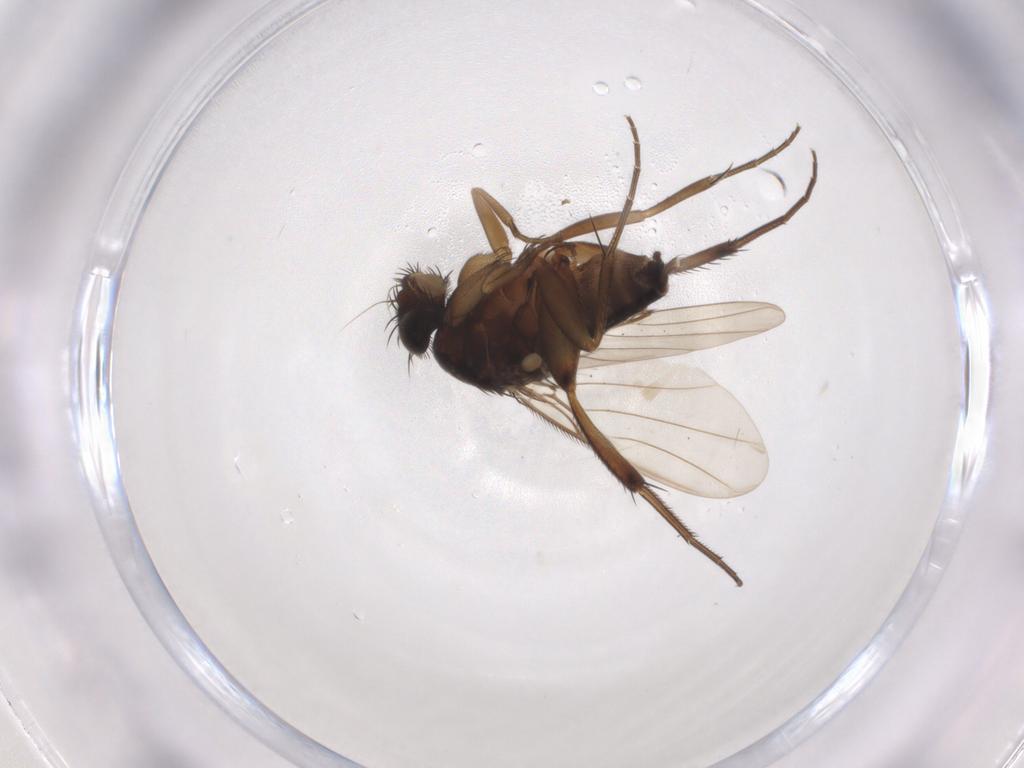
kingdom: Animalia
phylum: Arthropoda
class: Insecta
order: Diptera
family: Phoridae
